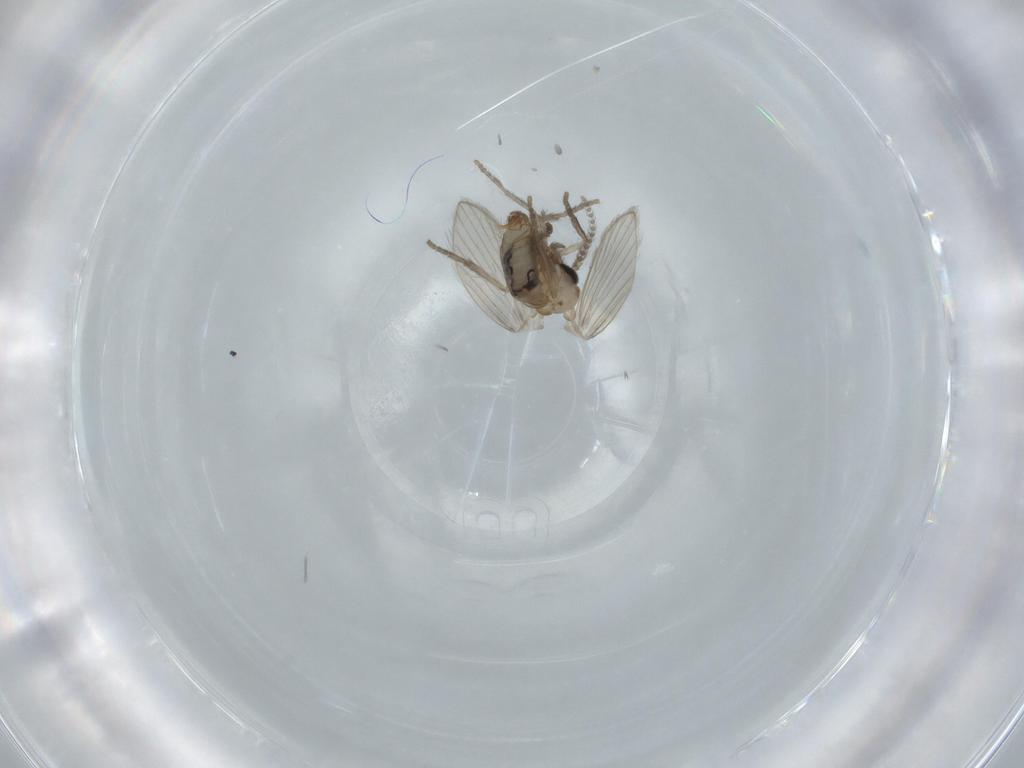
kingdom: Animalia
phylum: Arthropoda
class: Insecta
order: Diptera
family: Psychodidae
